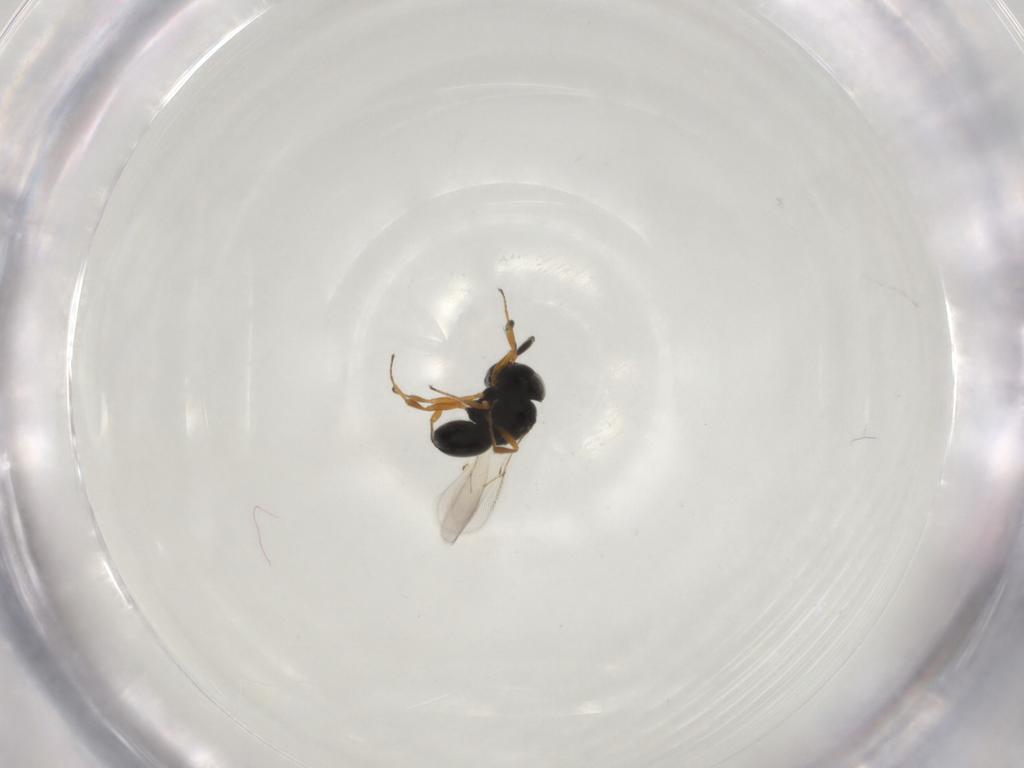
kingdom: Animalia
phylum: Arthropoda
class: Insecta
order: Hymenoptera
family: Scelionidae
